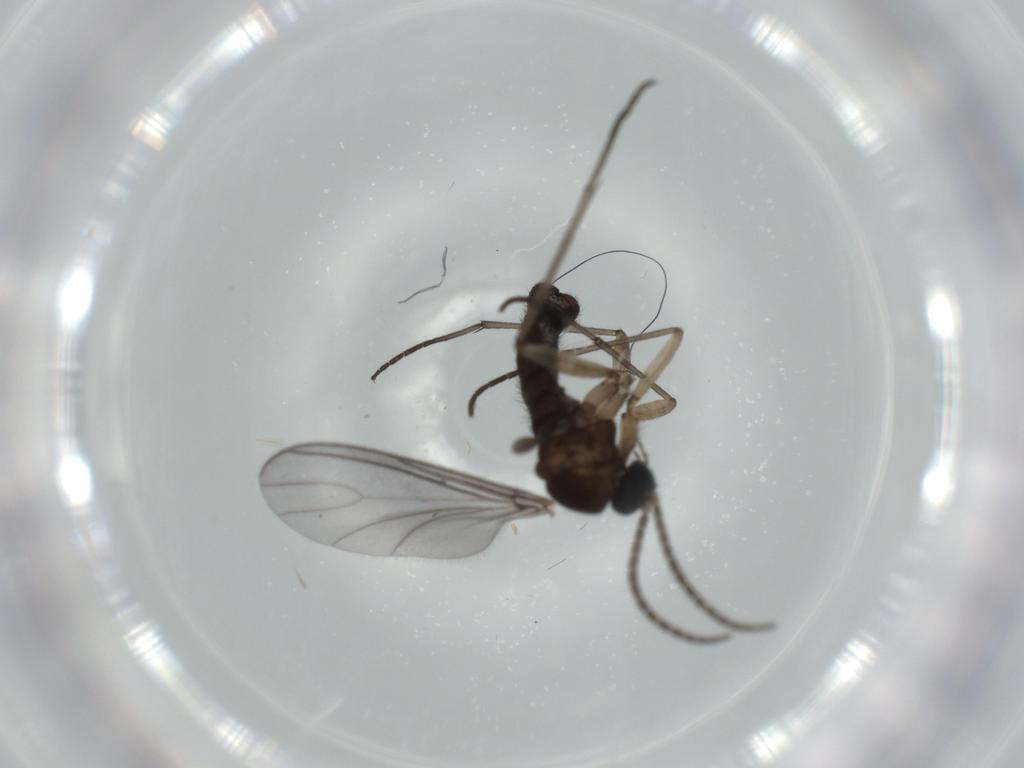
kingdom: Animalia
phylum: Arthropoda
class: Insecta
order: Diptera
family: Sciaridae
